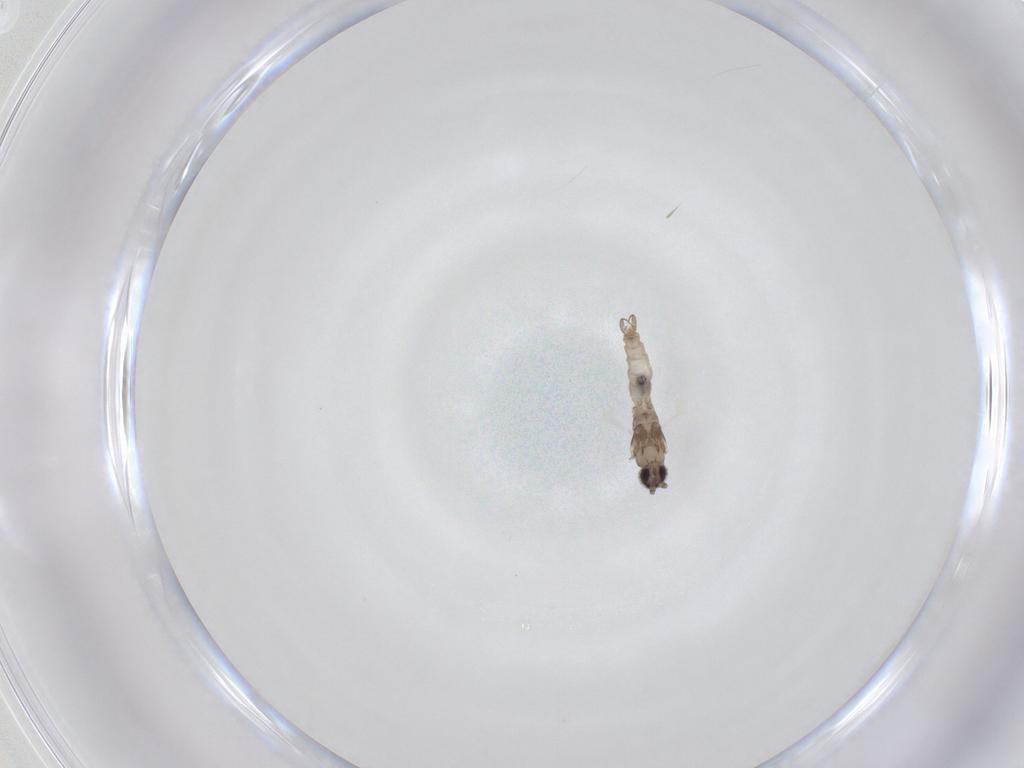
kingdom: Animalia
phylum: Arthropoda
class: Insecta
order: Diptera
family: Cecidomyiidae
